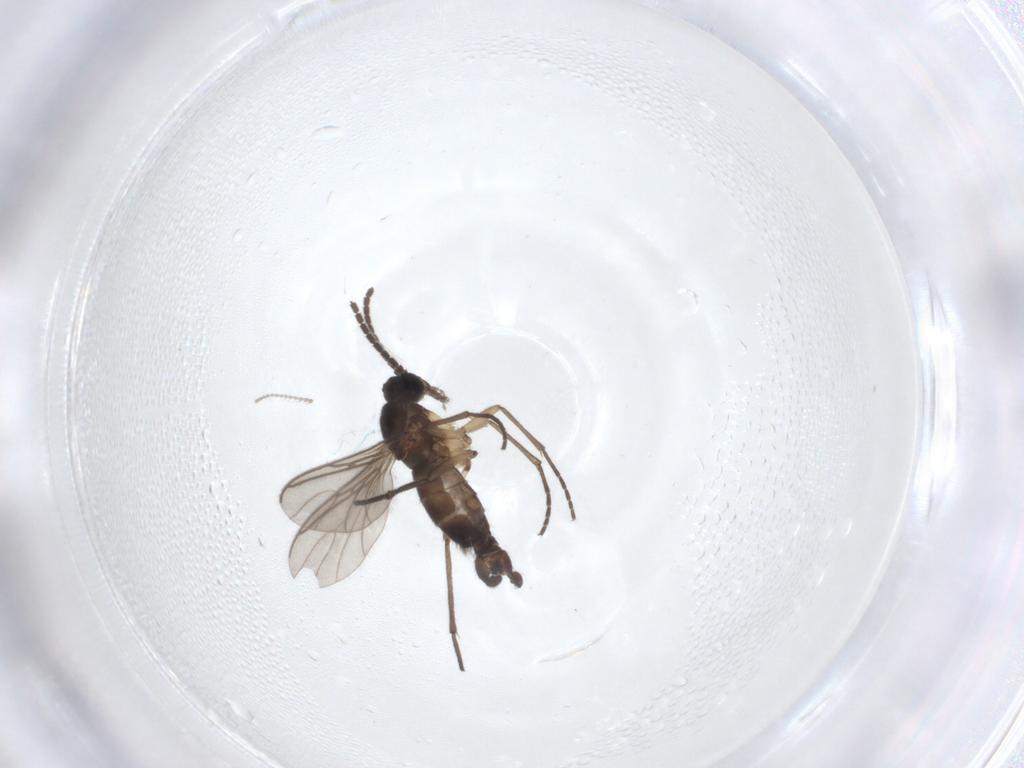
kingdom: Animalia
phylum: Arthropoda
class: Insecta
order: Diptera
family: Sciaridae
